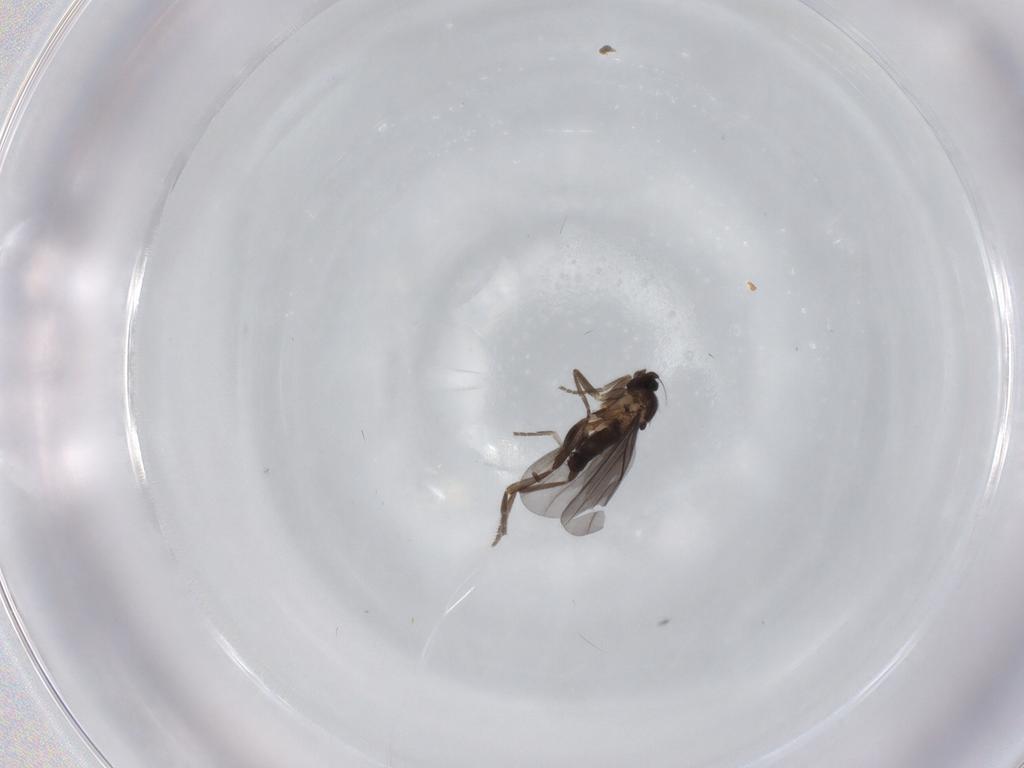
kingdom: Animalia
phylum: Arthropoda
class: Insecta
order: Diptera
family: Phoridae
